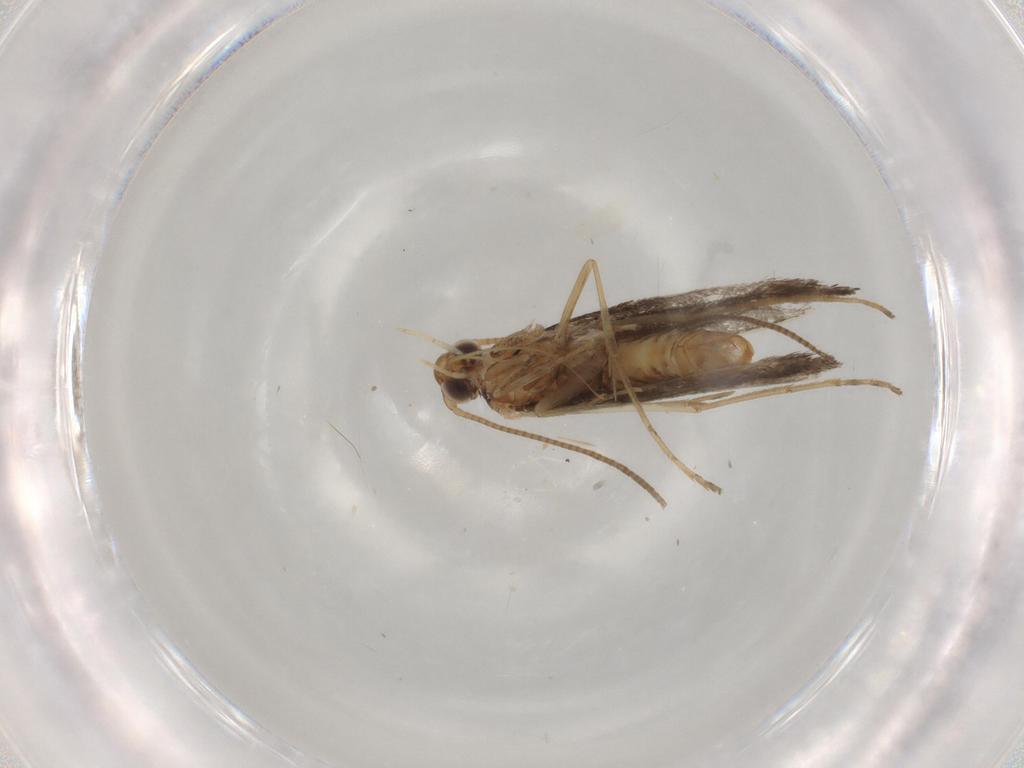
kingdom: Animalia
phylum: Arthropoda
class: Insecta
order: Lepidoptera
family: Gracillariidae
